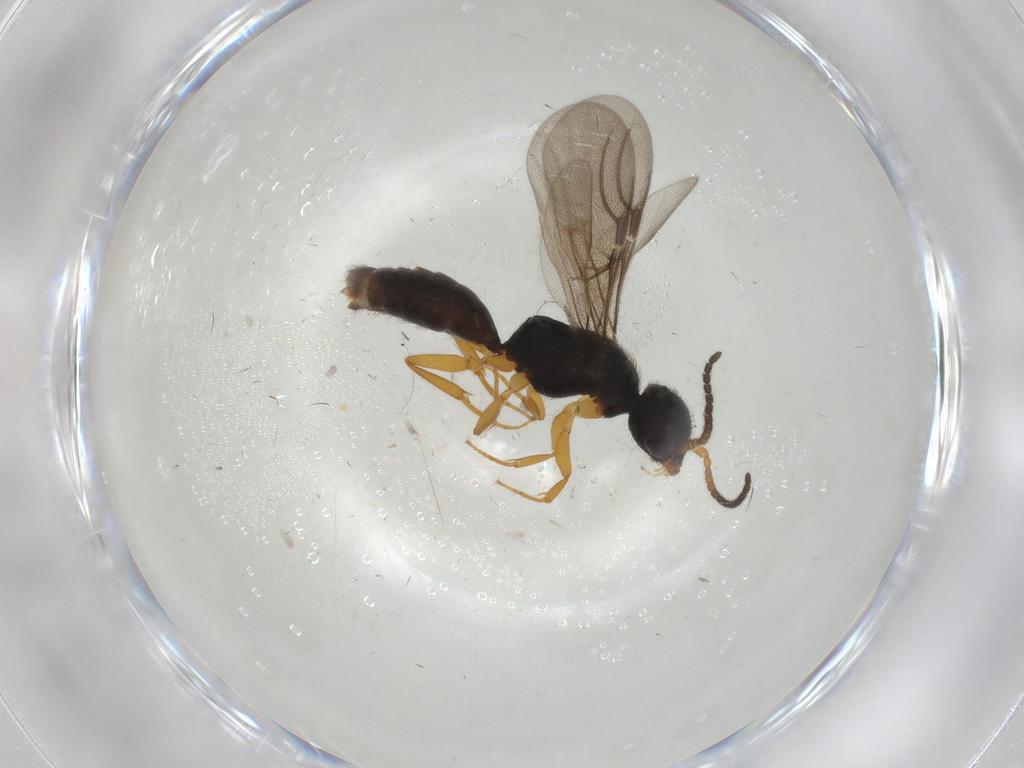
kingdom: Animalia
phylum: Arthropoda
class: Insecta
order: Hymenoptera
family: Bethylidae
